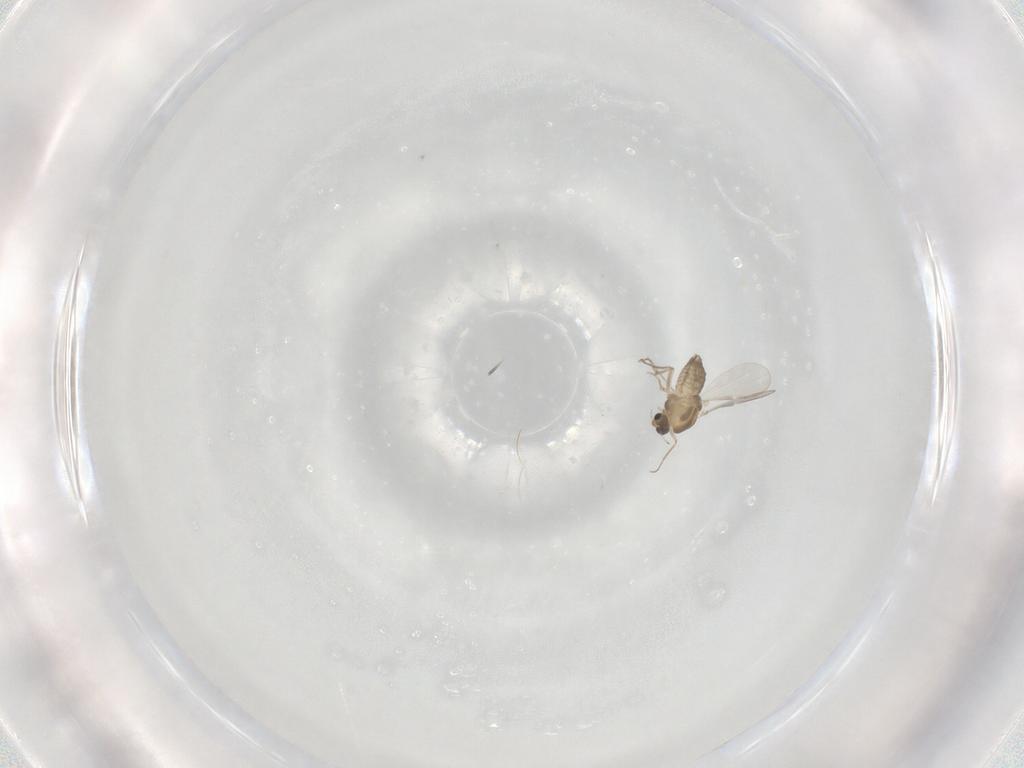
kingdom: Animalia
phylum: Arthropoda
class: Insecta
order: Diptera
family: Chironomidae
